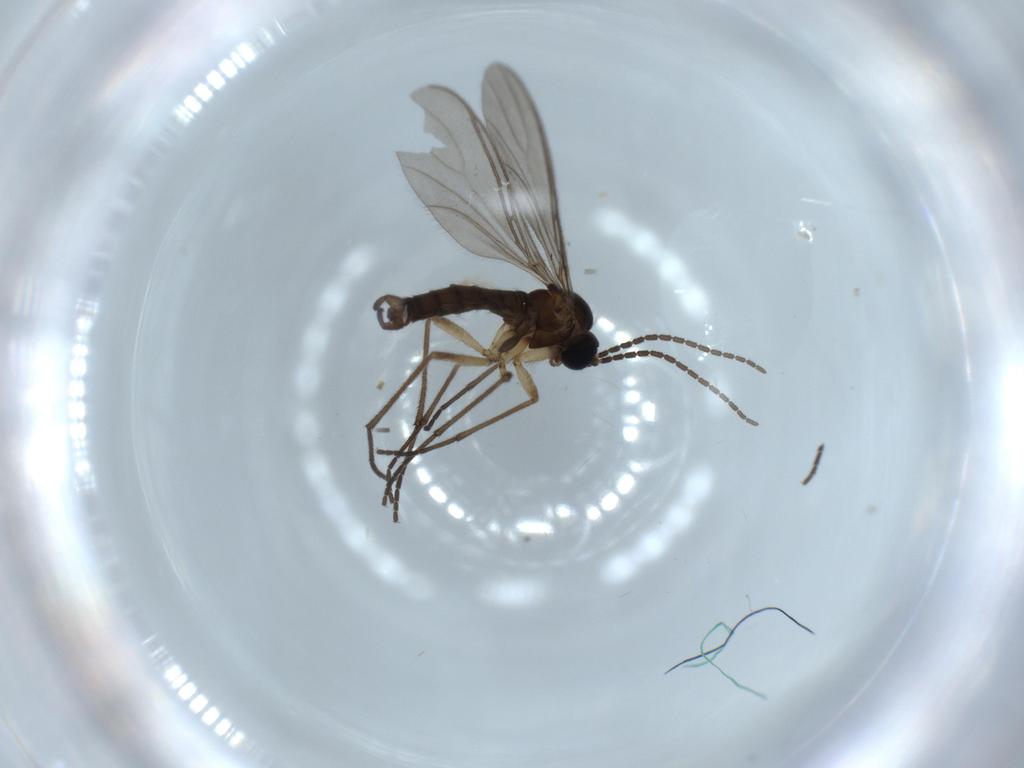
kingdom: Animalia
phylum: Arthropoda
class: Insecta
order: Diptera
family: Sciaridae
